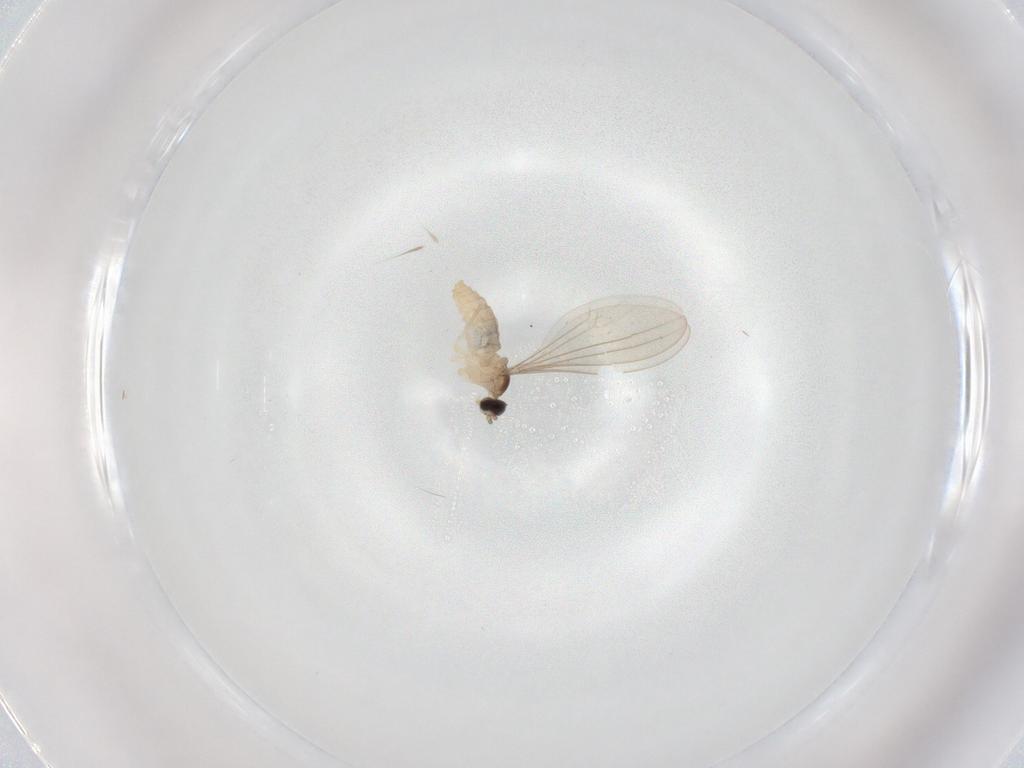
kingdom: Animalia
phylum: Arthropoda
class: Insecta
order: Diptera
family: Cecidomyiidae
